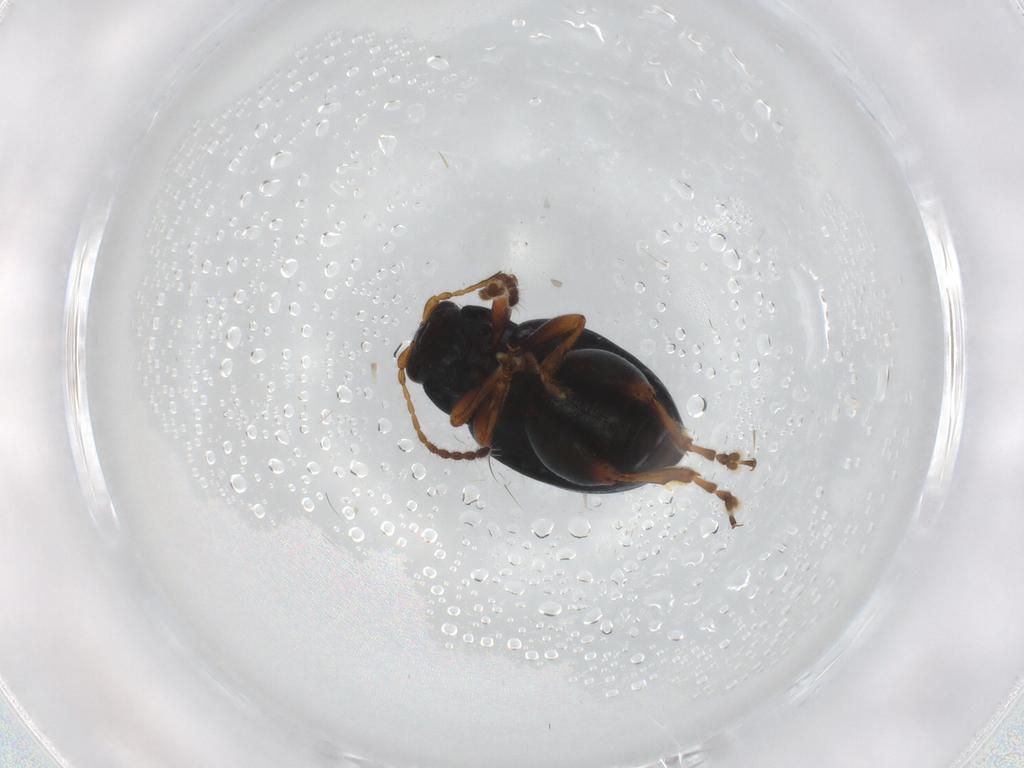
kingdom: Animalia
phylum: Arthropoda
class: Insecta
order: Coleoptera
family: Chrysomelidae
